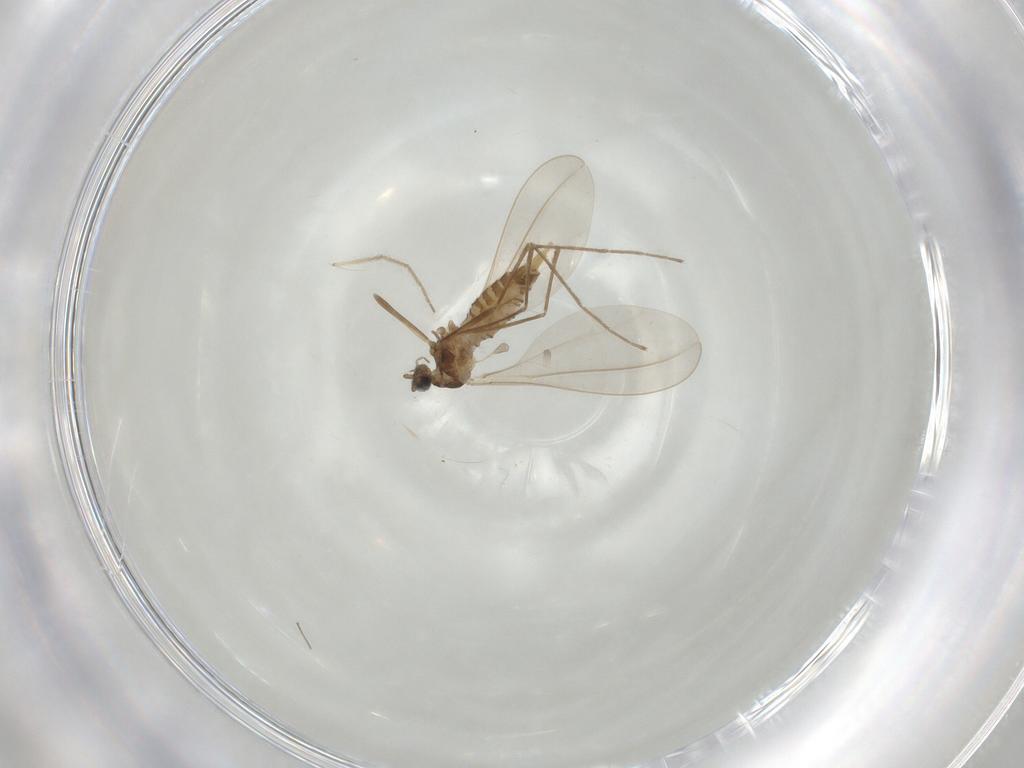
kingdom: Animalia
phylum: Arthropoda
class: Insecta
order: Diptera
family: Cecidomyiidae
